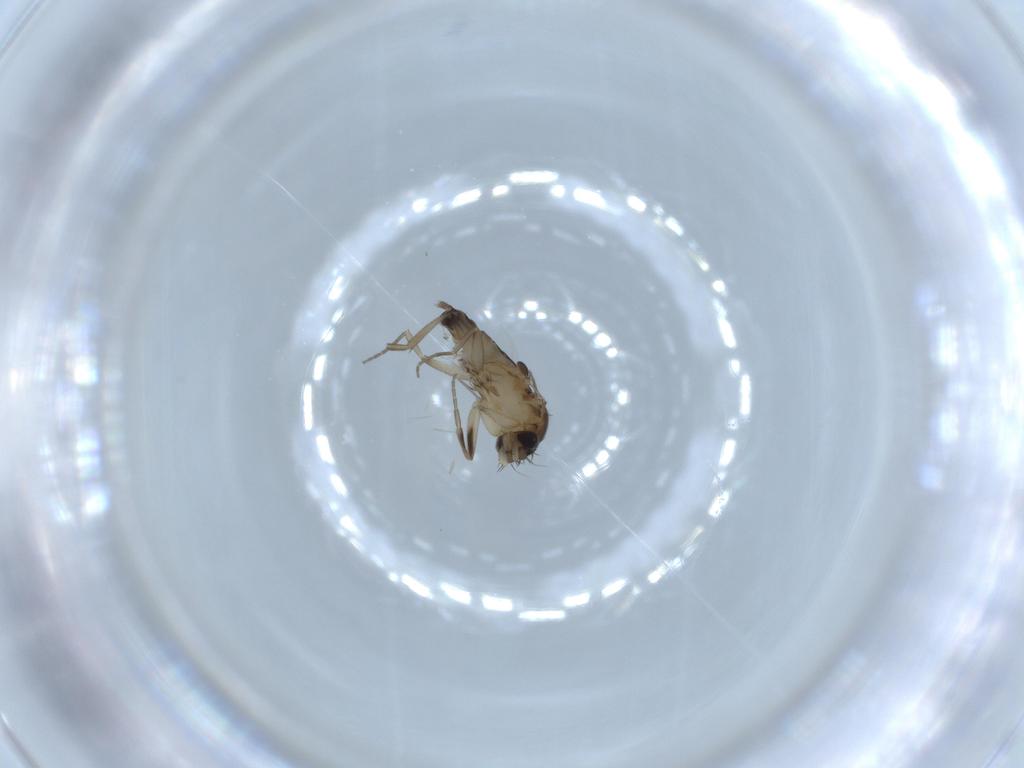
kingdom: Animalia
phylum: Arthropoda
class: Insecta
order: Diptera
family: Phoridae
